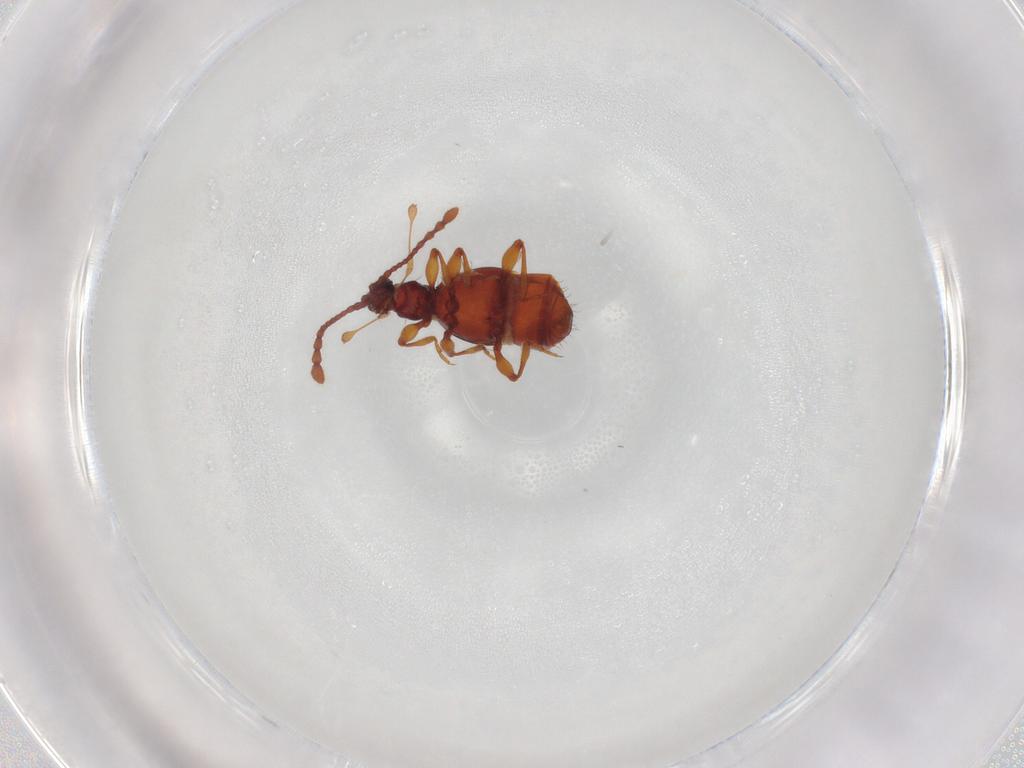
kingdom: Animalia
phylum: Arthropoda
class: Insecta
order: Coleoptera
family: Staphylinidae
